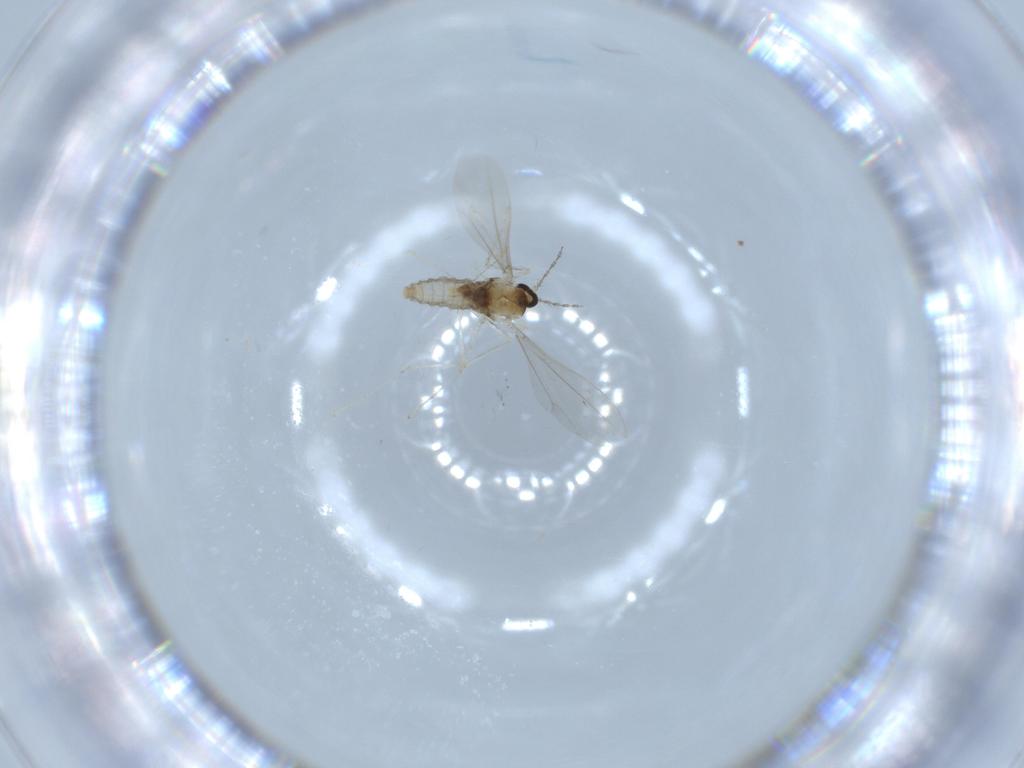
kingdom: Animalia
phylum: Arthropoda
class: Insecta
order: Diptera
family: Cecidomyiidae
